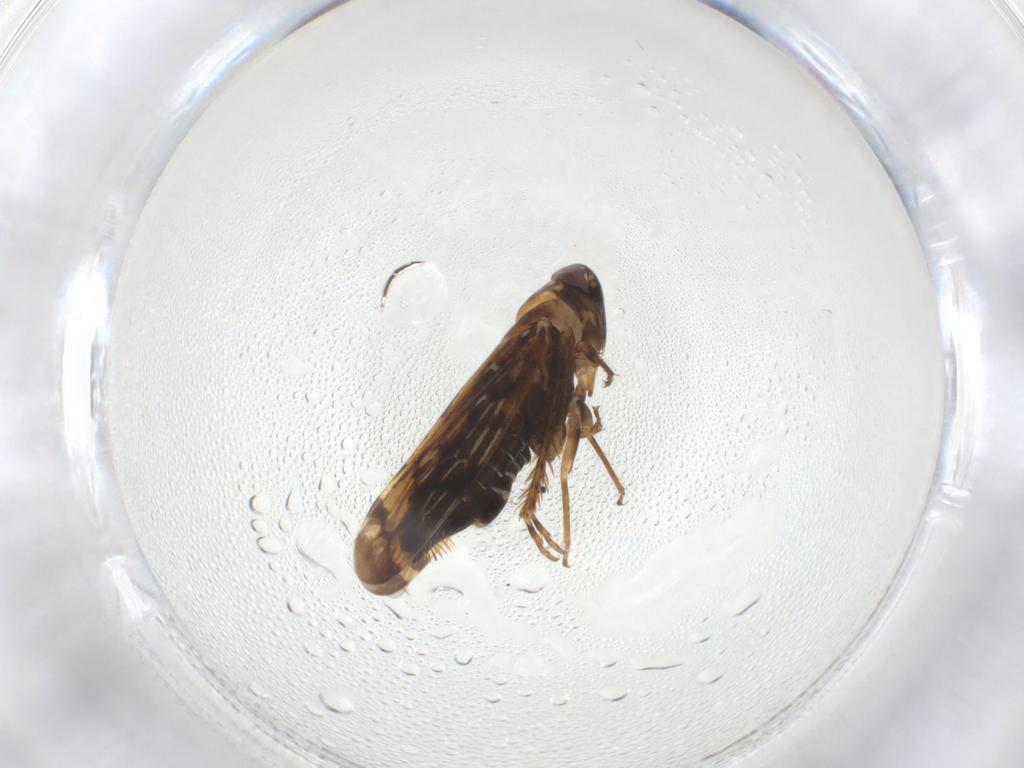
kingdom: Animalia
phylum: Arthropoda
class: Insecta
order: Hemiptera
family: Cicadellidae
